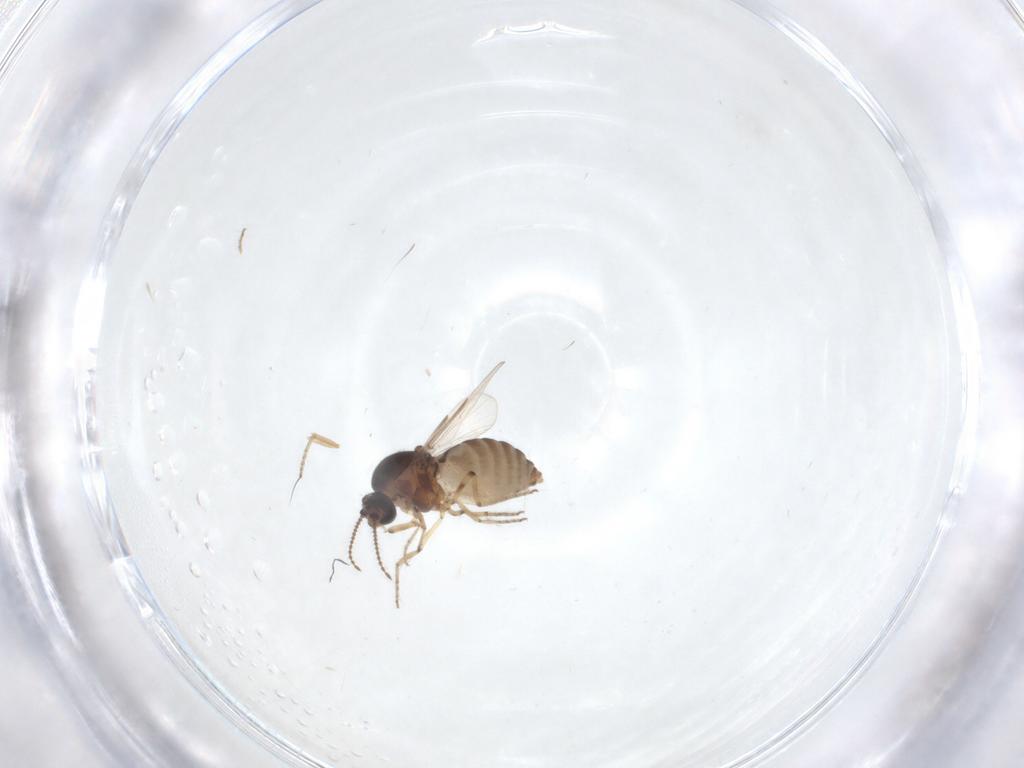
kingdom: Animalia
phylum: Arthropoda
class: Insecta
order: Diptera
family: Ceratopogonidae
